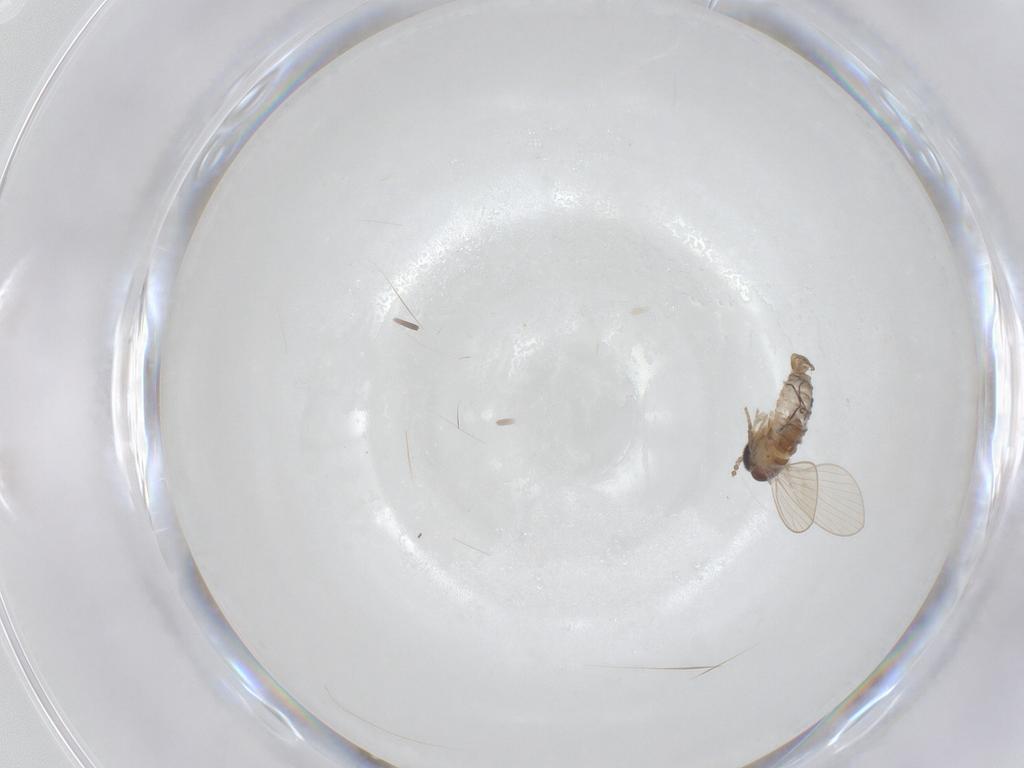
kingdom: Animalia
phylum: Arthropoda
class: Insecta
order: Diptera
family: Psychodidae
